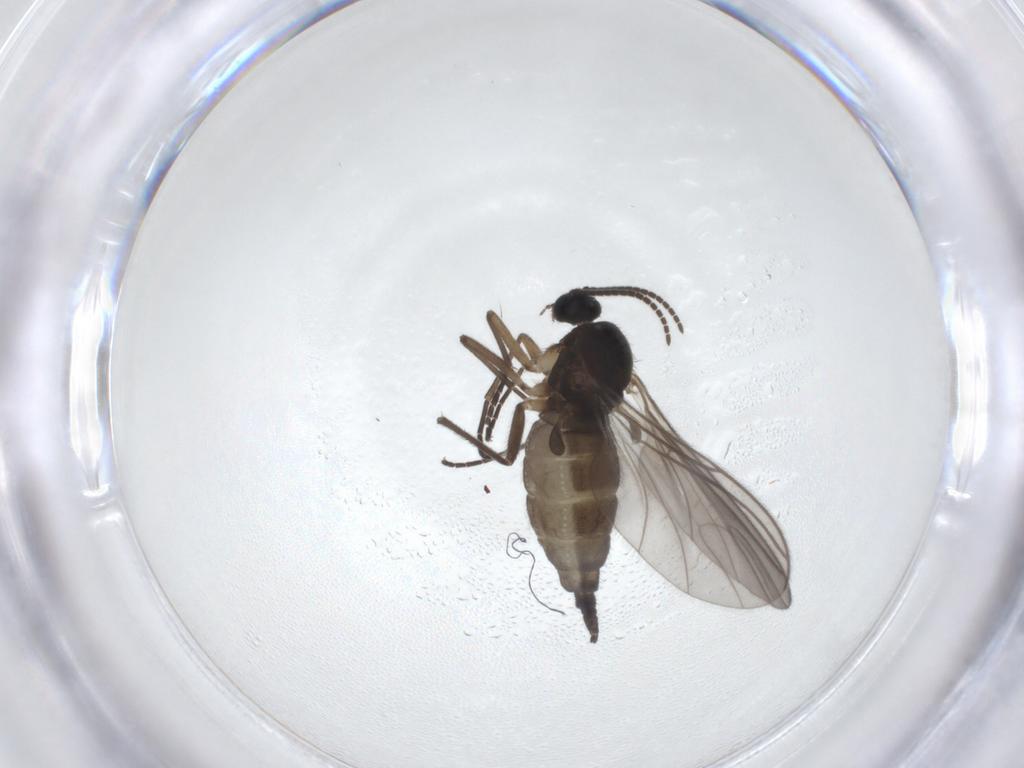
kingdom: Animalia
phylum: Arthropoda
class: Insecta
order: Diptera
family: Sciaridae
